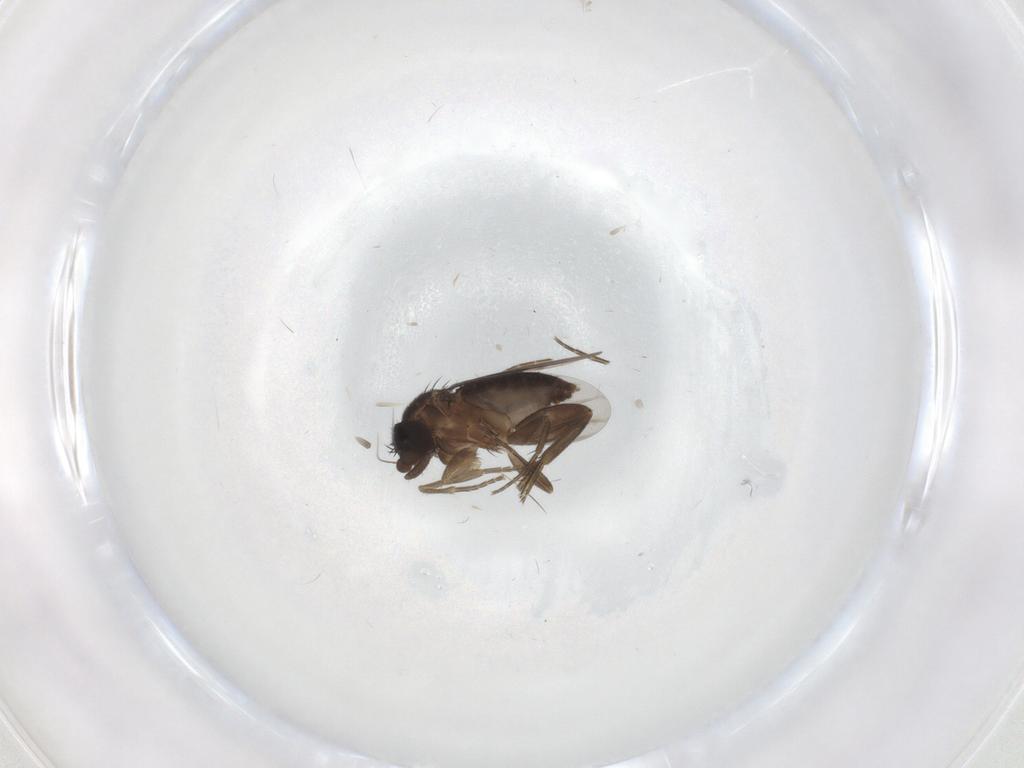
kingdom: Animalia
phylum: Arthropoda
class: Insecta
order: Diptera
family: Phoridae
